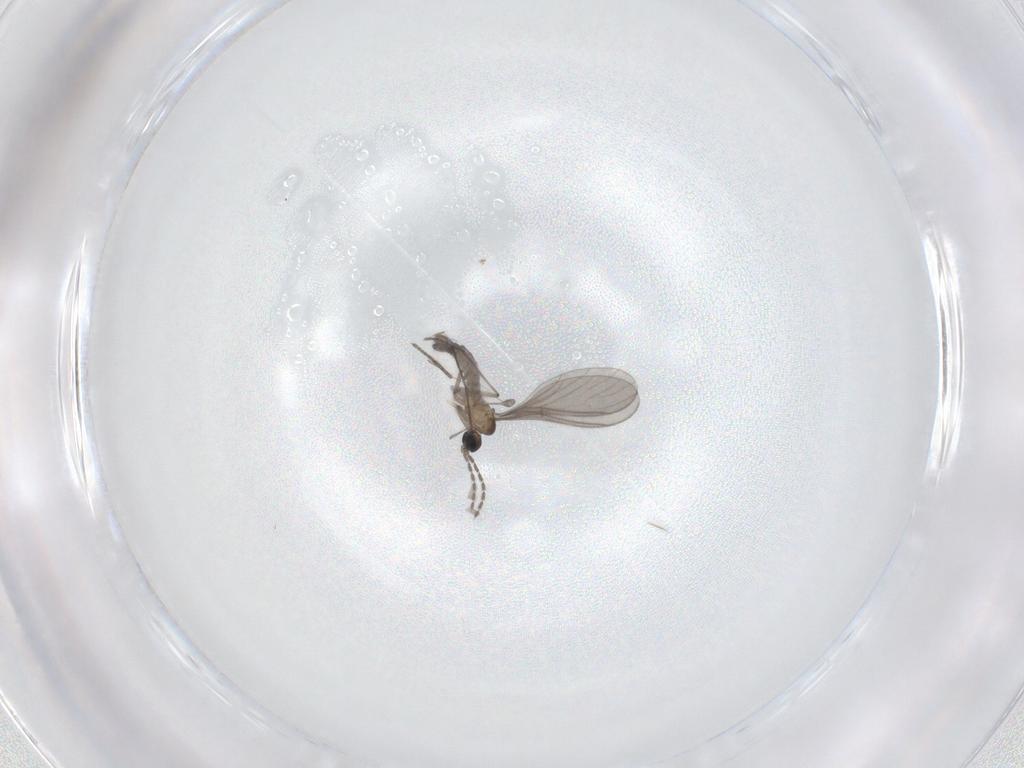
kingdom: Animalia
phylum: Arthropoda
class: Insecta
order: Diptera
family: Sciaridae
